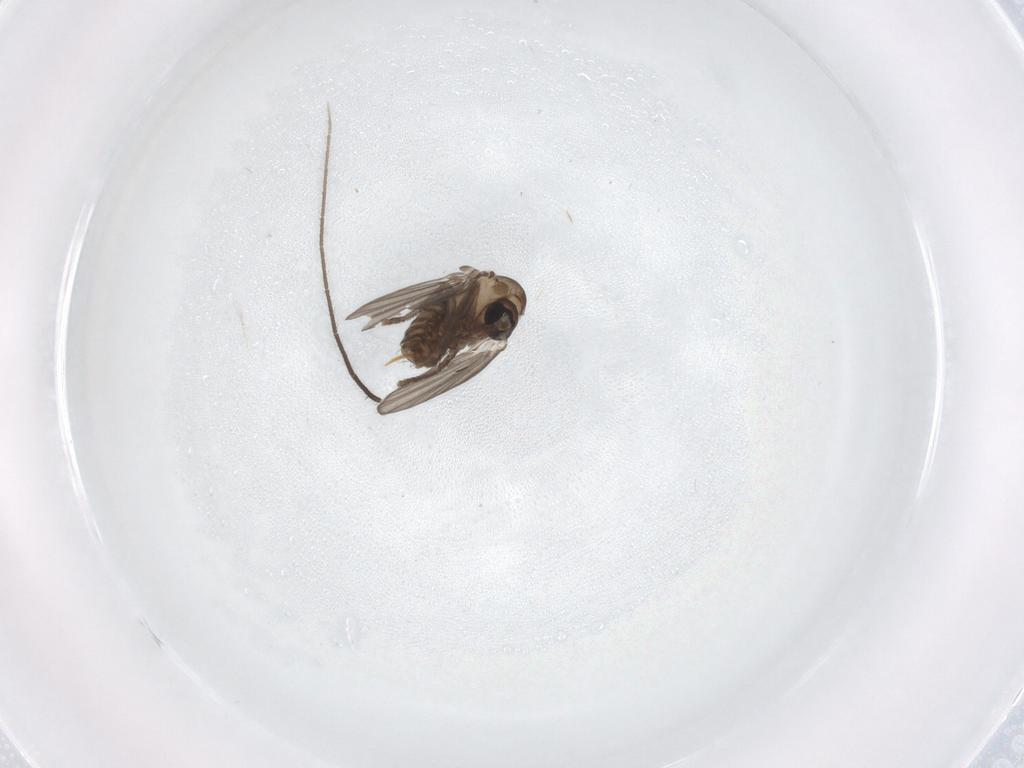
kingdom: Animalia
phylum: Arthropoda
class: Insecta
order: Diptera
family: Psychodidae
